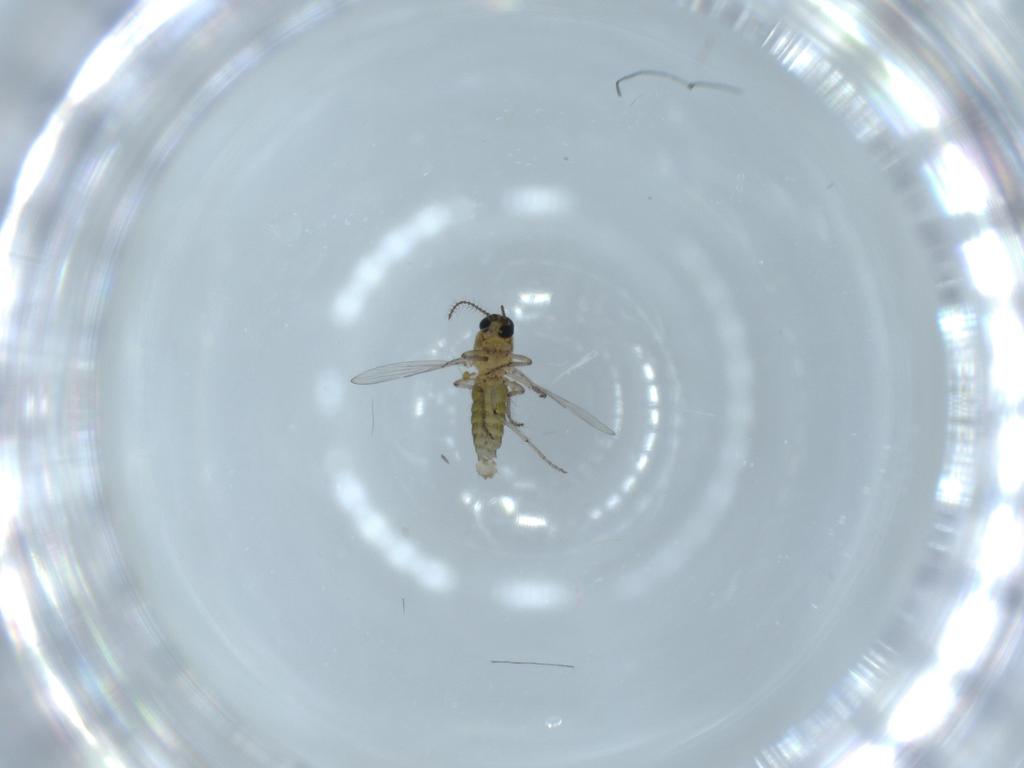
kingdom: Animalia
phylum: Arthropoda
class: Insecta
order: Diptera
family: Ceratopogonidae
